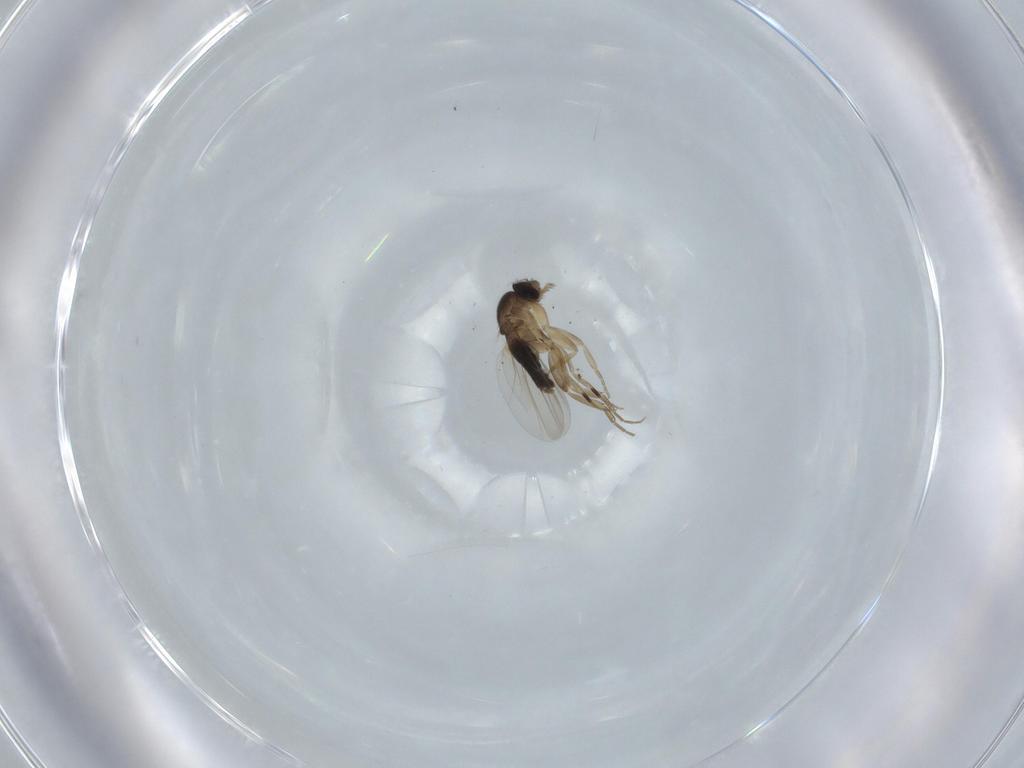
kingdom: Animalia
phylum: Arthropoda
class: Insecta
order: Diptera
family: Phoridae
